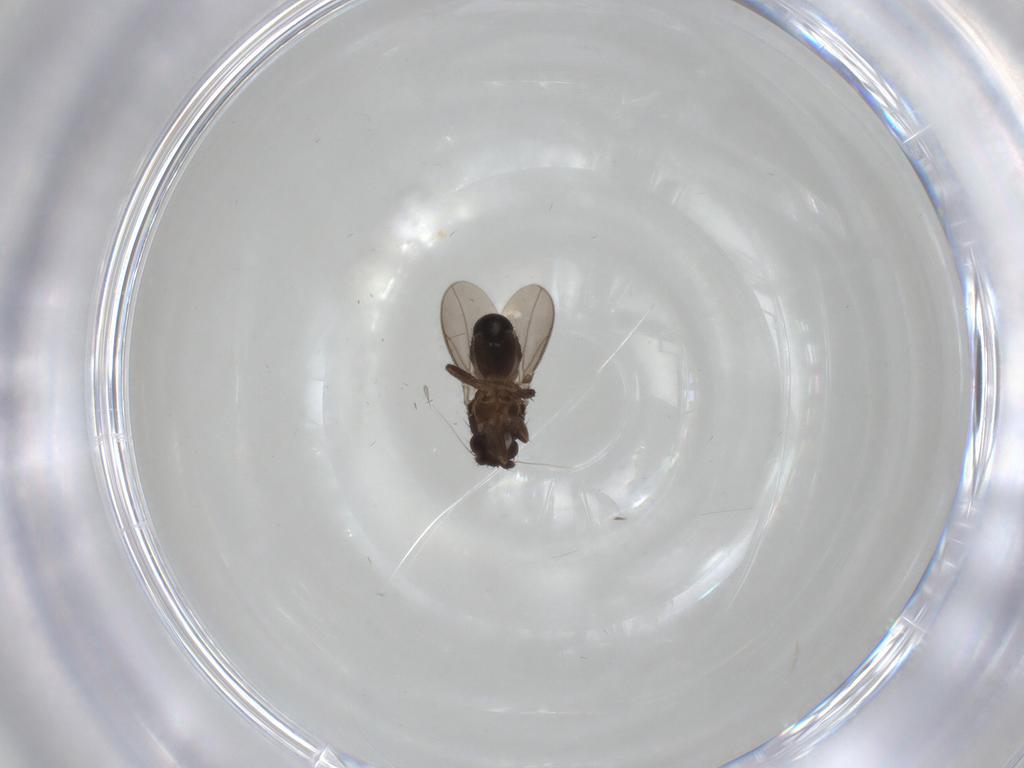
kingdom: Animalia
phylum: Arthropoda
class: Insecta
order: Diptera
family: Sphaeroceridae
